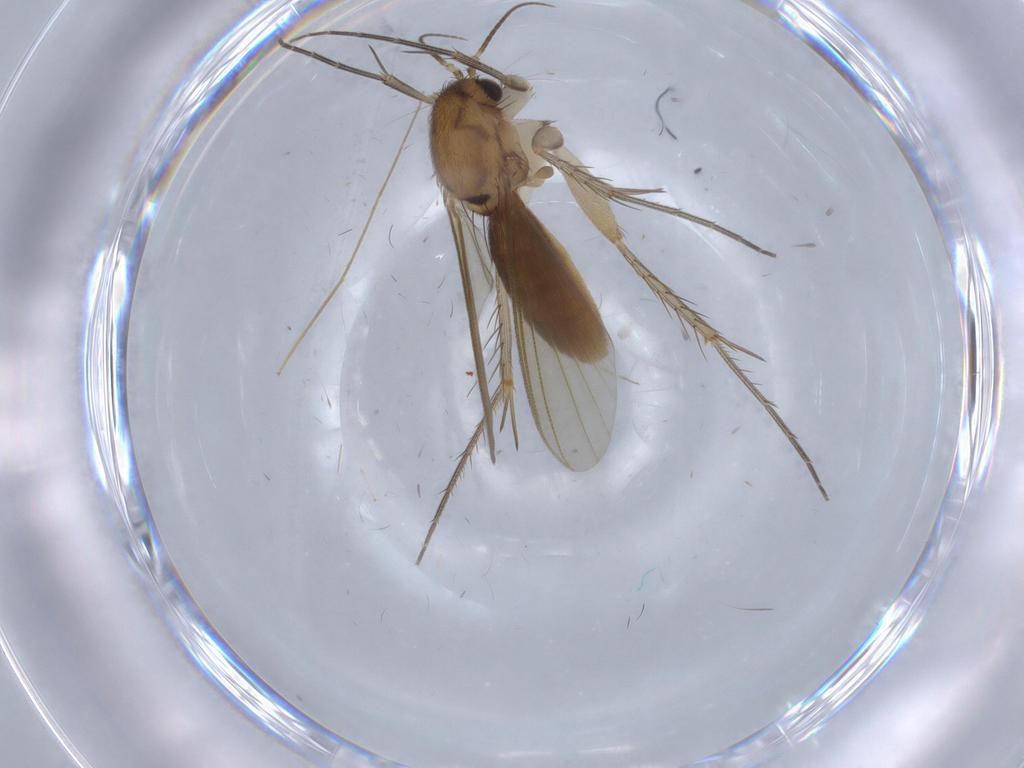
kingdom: Animalia
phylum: Arthropoda
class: Insecta
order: Diptera
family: Mycetophilidae
